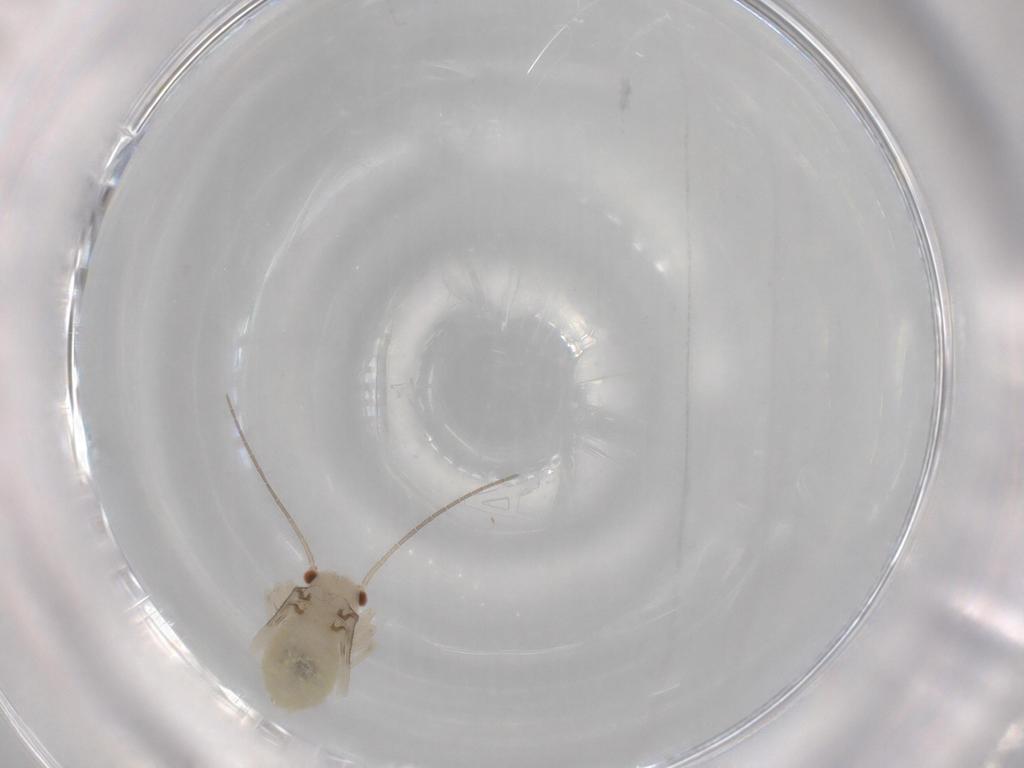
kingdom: Animalia
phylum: Arthropoda
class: Insecta
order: Psocodea
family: Caeciliusidae
